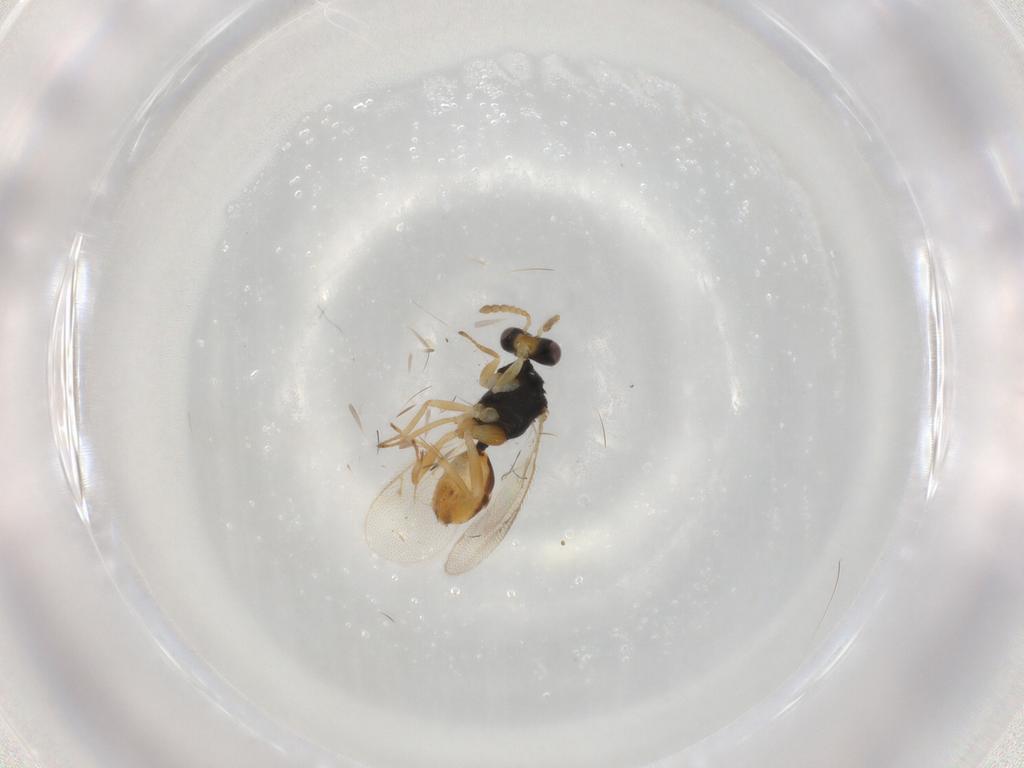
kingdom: Animalia
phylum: Arthropoda
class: Insecta
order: Hymenoptera
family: Eulophidae
